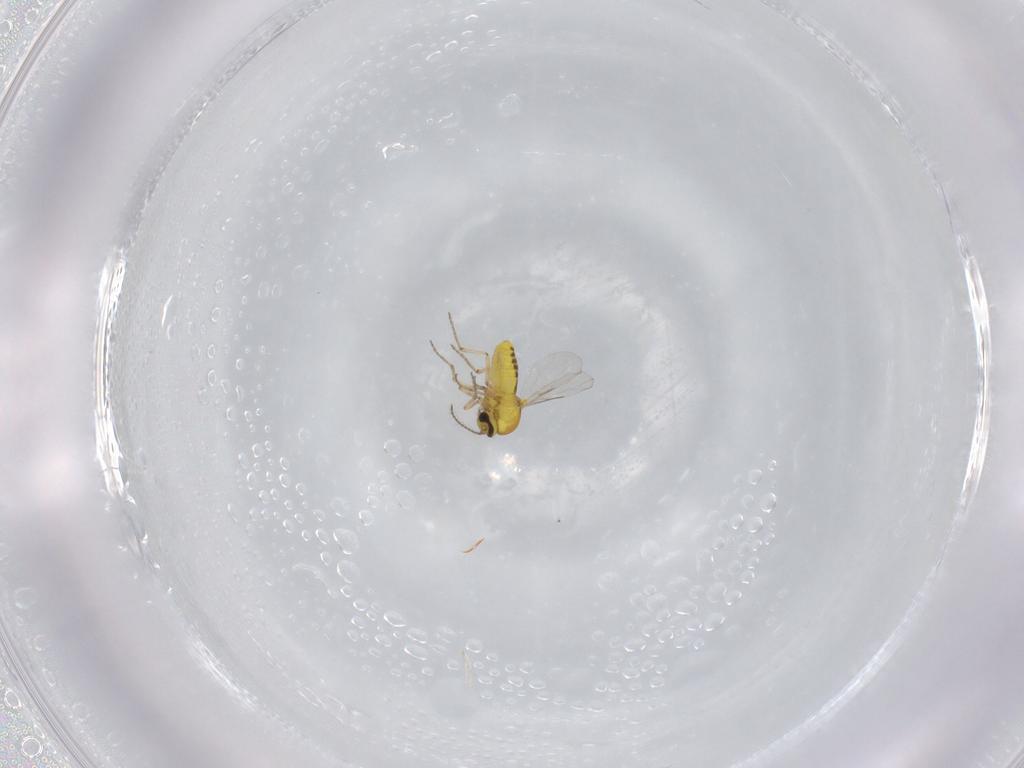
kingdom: Animalia
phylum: Arthropoda
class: Insecta
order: Diptera
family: Ceratopogonidae
